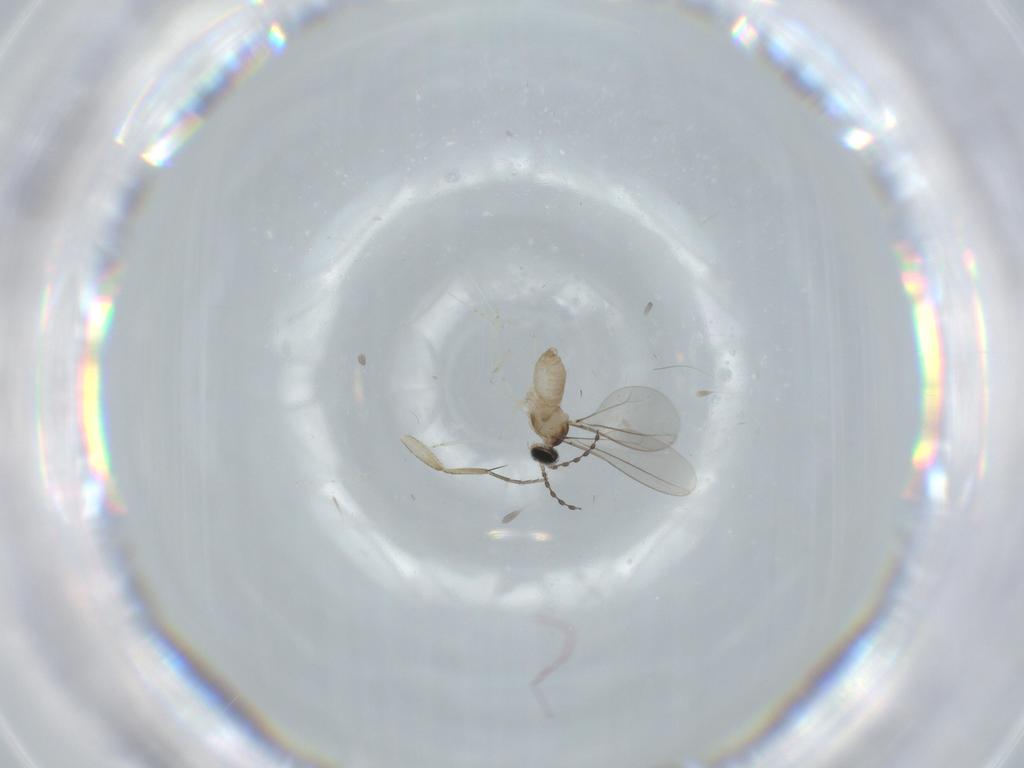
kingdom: Animalia
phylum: Arthropoda
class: Insecta
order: Diptera
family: Cecidomyiidae
